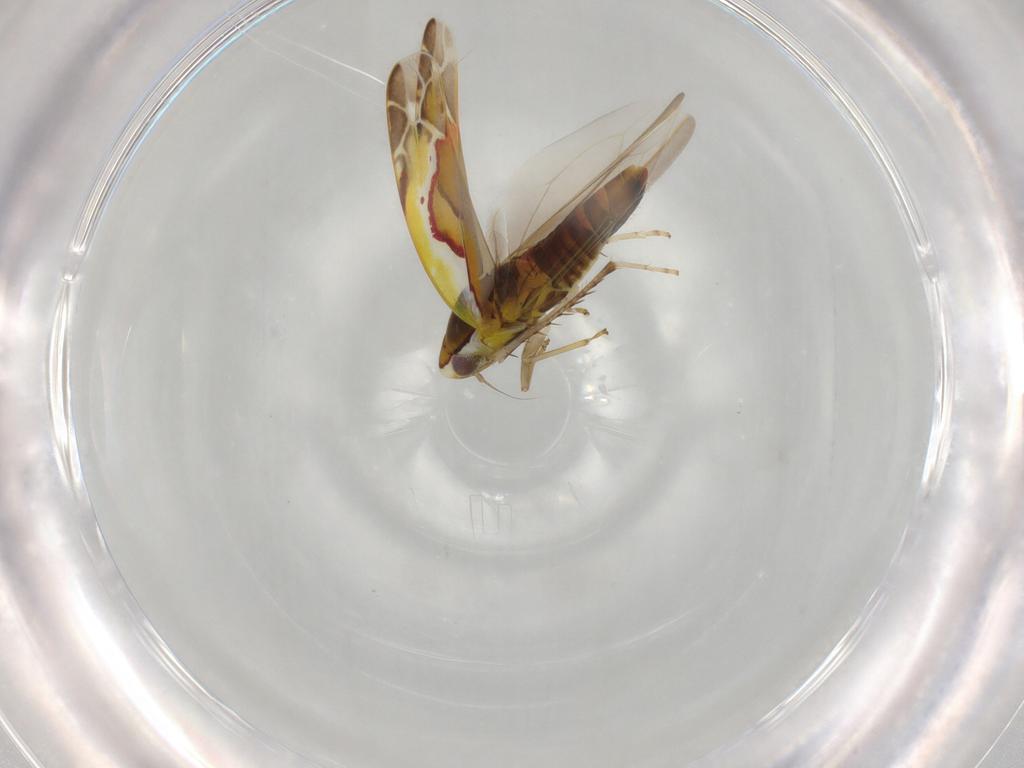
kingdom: Animalia
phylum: Arthropoda
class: Insecta
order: Hemiptera
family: Cicadellidae
